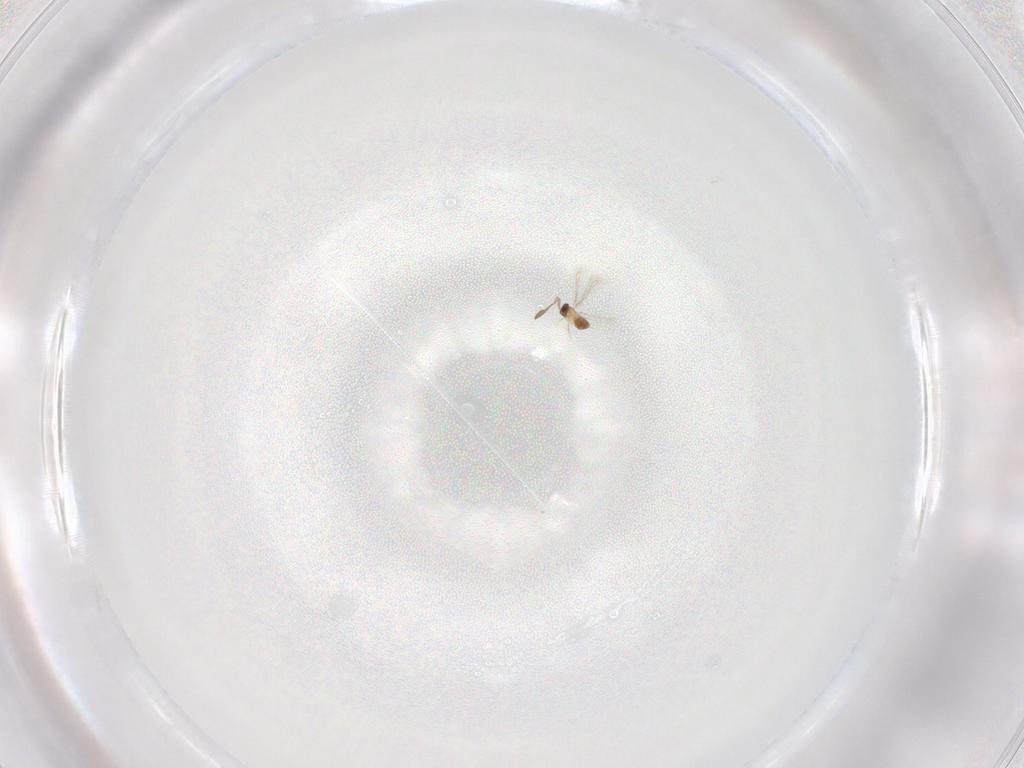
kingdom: Animalia
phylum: Arthropoda
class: Insecta
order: Hymenoptera
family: Mymaridae
